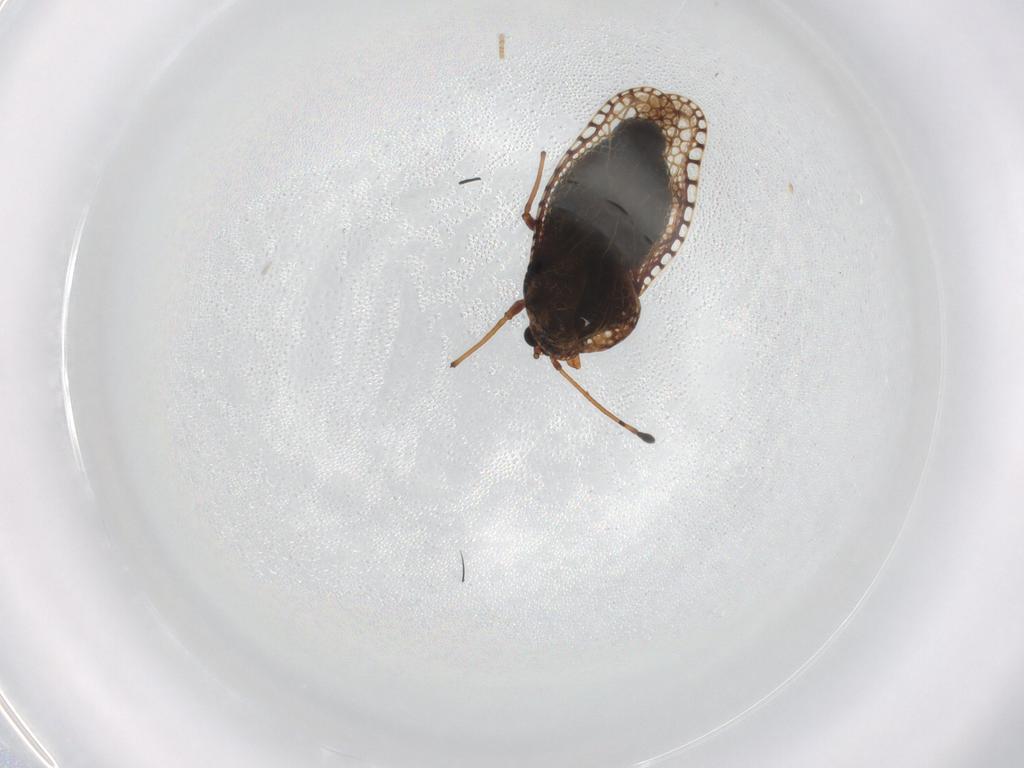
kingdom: Animalia
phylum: Arthropoda
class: Insecta
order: Hemiptera
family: Tingidae
